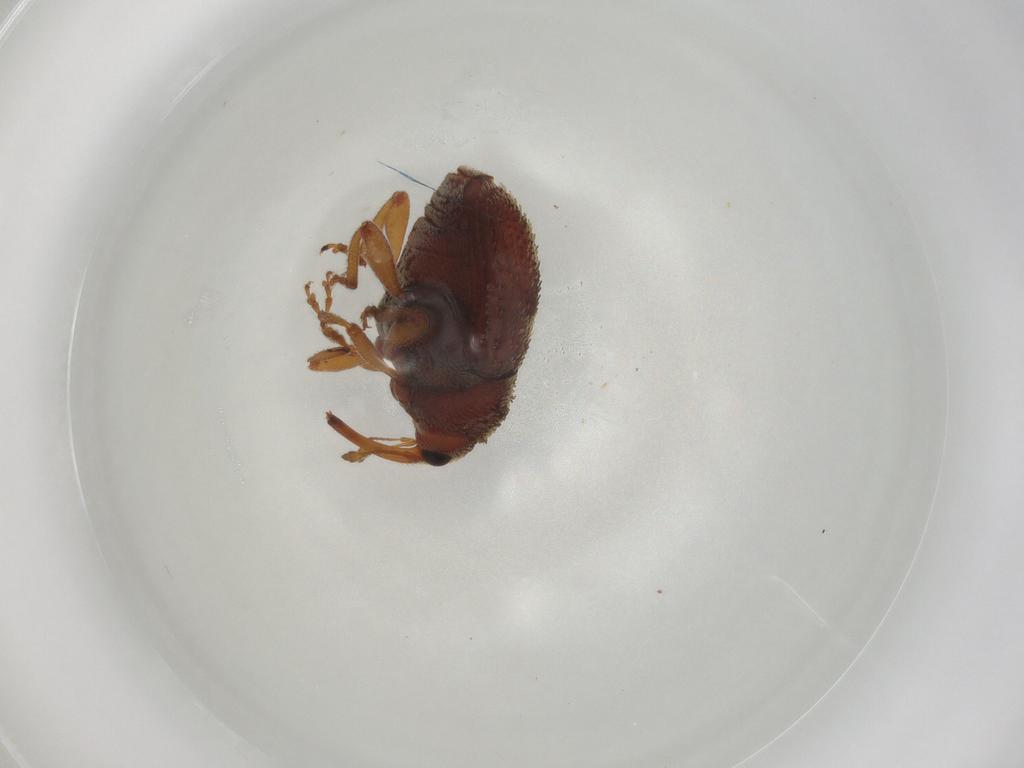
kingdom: Animalia
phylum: Arthropoda
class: Insecta
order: Coleoptera
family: Curculionidae
